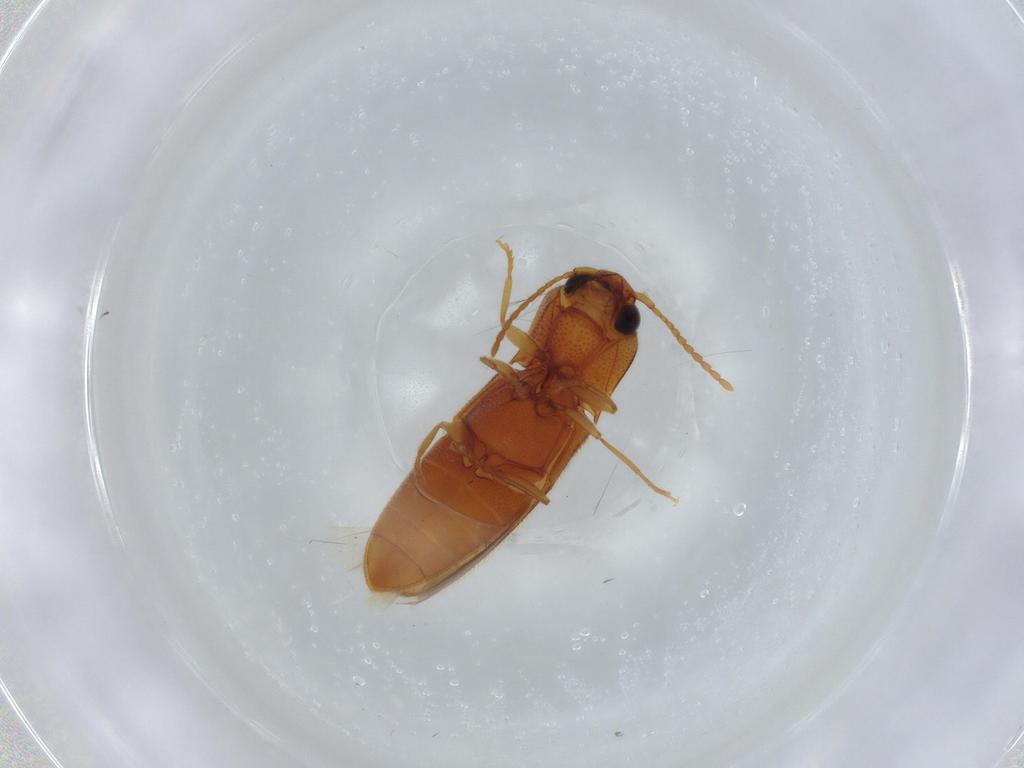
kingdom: Animalia
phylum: Arthropoda
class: Insecta
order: Coleoptera
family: Elateridae
